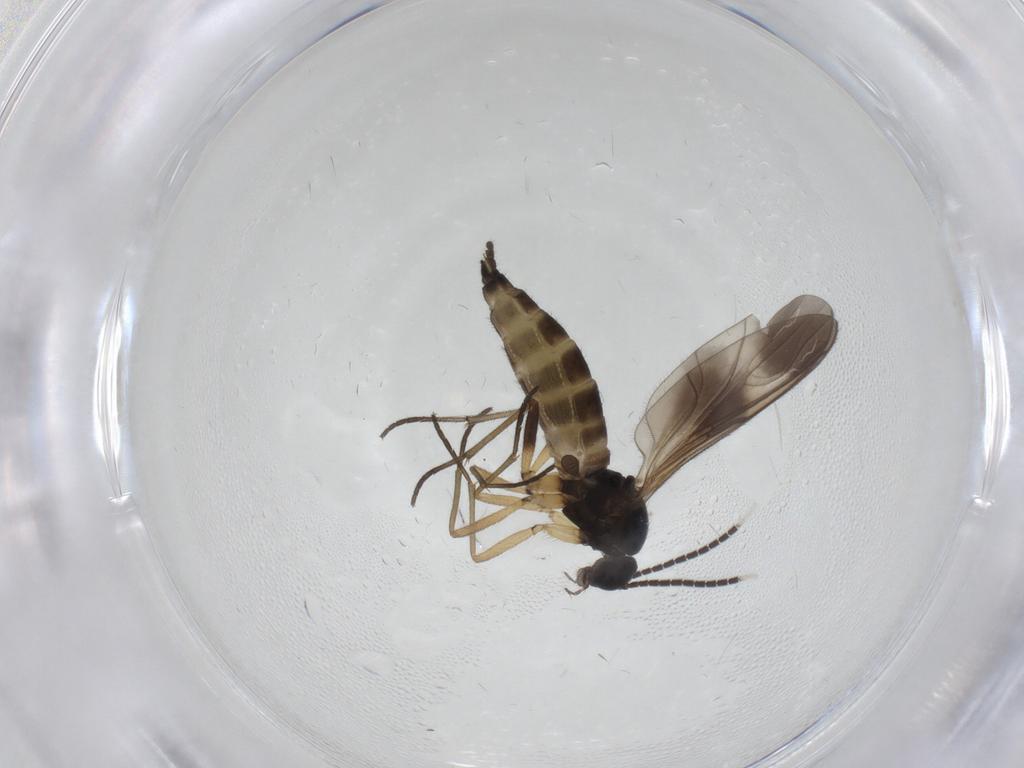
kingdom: Animalia
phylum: Arthropoda
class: Insecta
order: Diptera
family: Sciaridae
